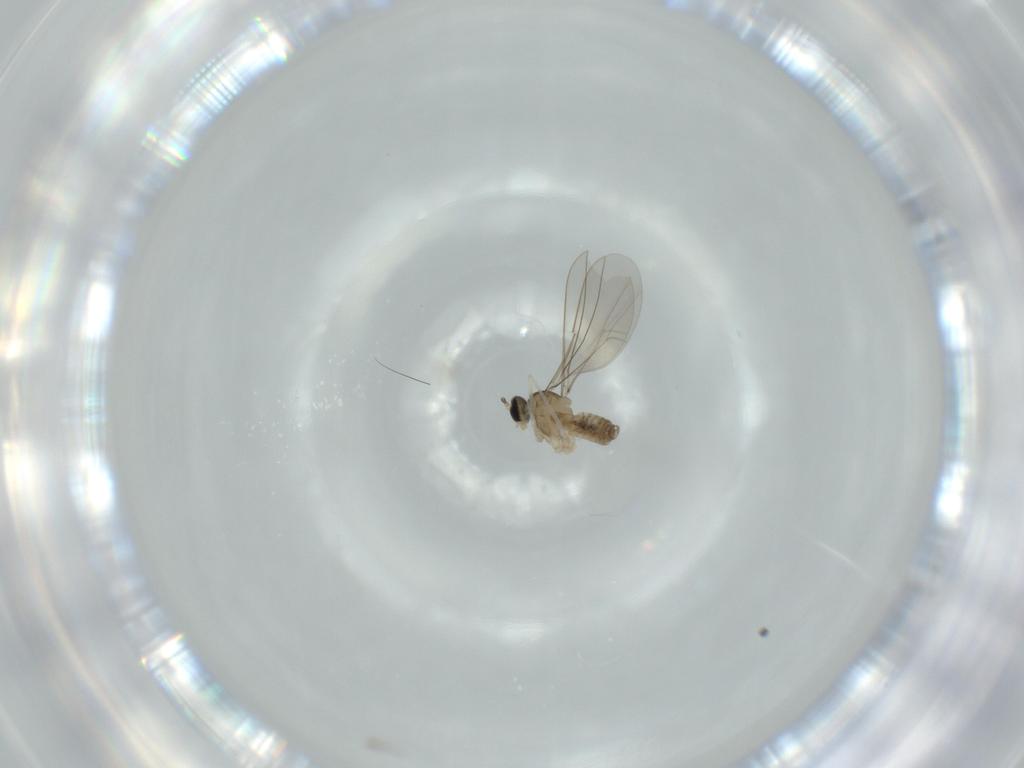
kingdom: Animalia
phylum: Arthropoda
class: Insecta
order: Diptera
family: Cecidomyiidae
